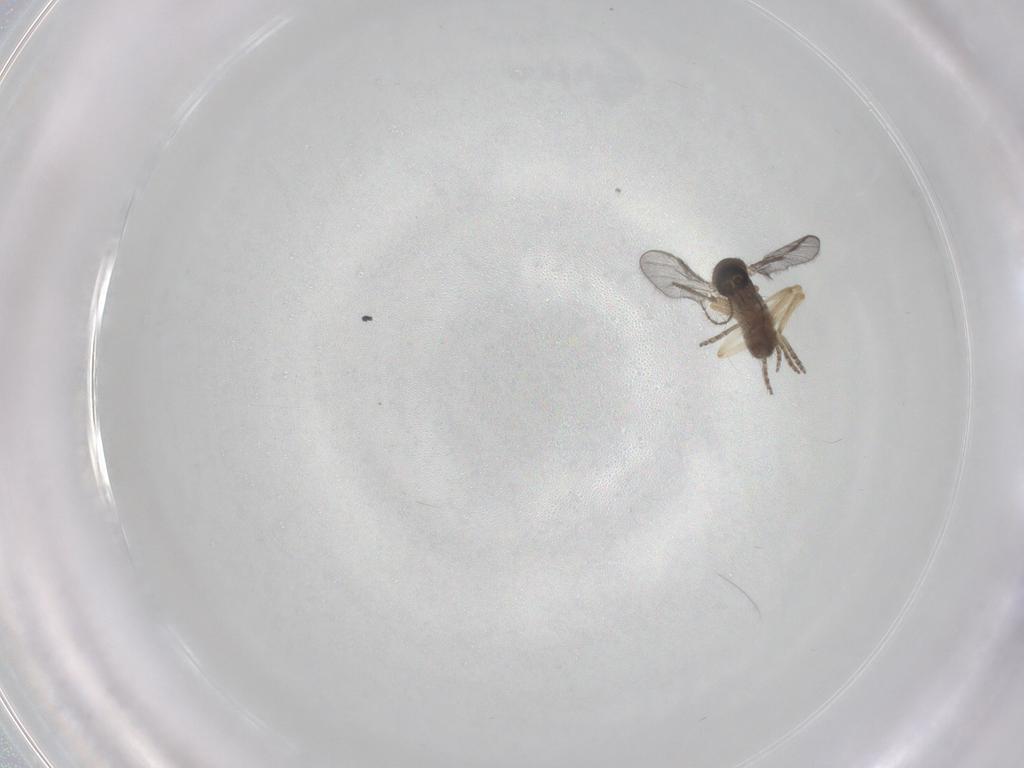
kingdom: Animalia
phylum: Arthropoda
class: Insecta
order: Diptera
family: Ceratopogonidae
